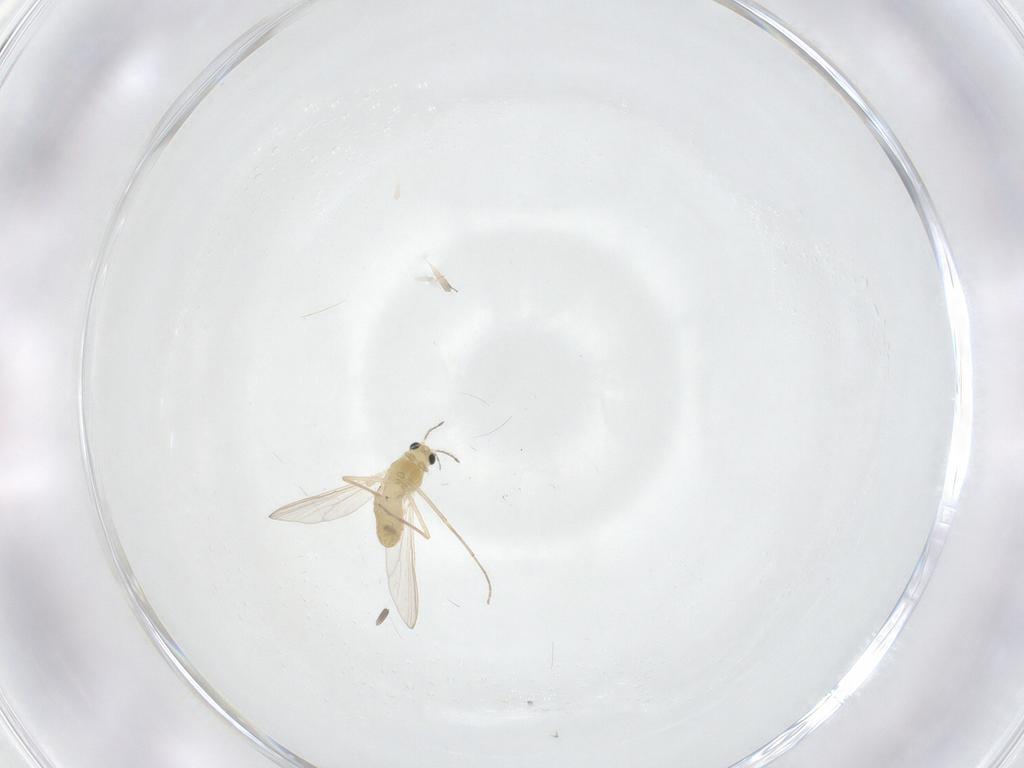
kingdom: Animalia
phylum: Arthropoda
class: Insecta
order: Diptera
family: Chironomidae
